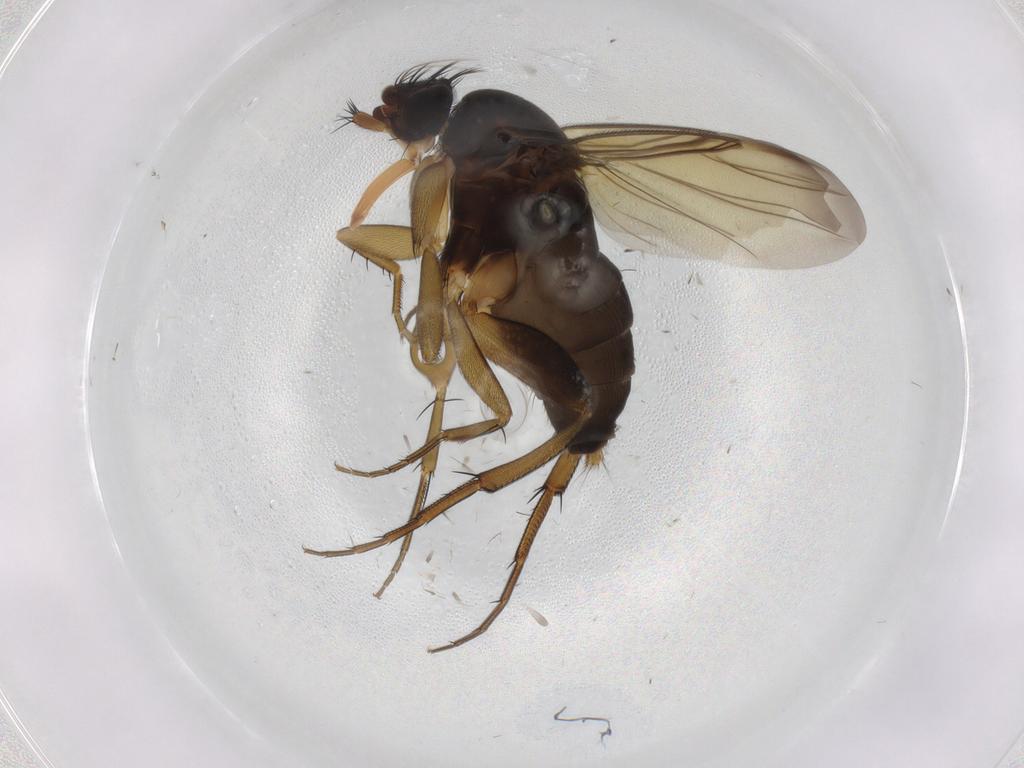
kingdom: Animalia
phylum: Arthropoda
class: Insecta
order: Diptera
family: Phoridae
